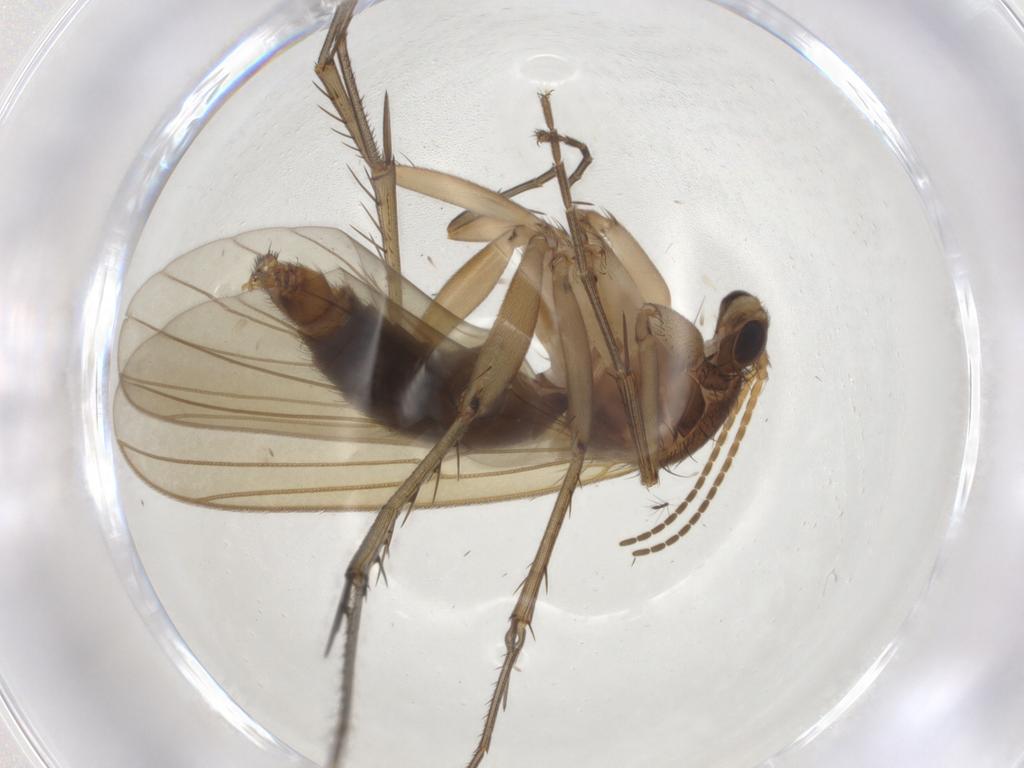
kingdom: Animalia
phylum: Arthropoda
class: Insecta
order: Diptera
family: Mycetophilidae
